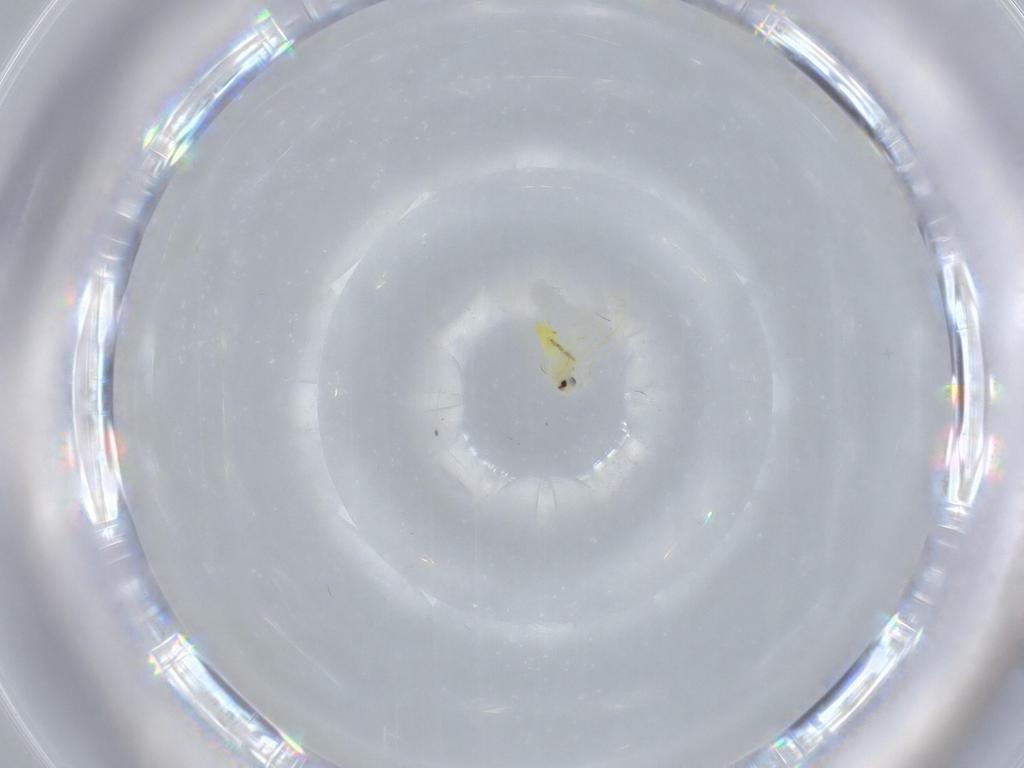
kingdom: Animalia
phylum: Arthropoda
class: Insecta
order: Hemiptera
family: Aleyrodidae
